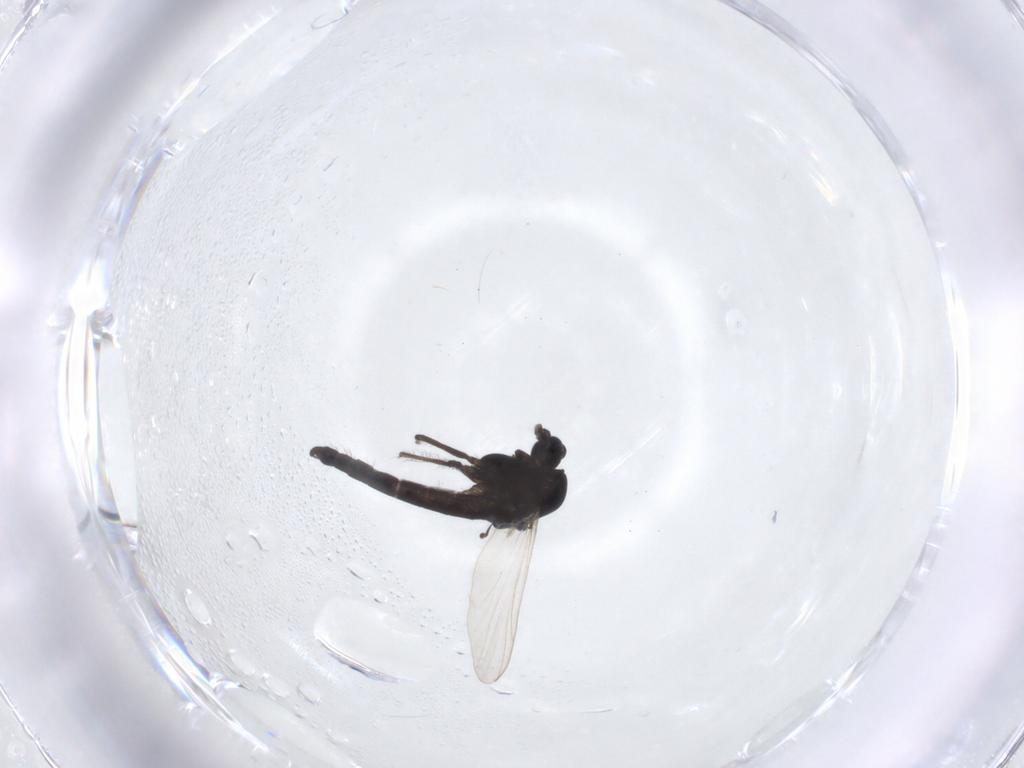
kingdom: Animalia
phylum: Arthropoda
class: Insecta
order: Diptera
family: Chironomidae
